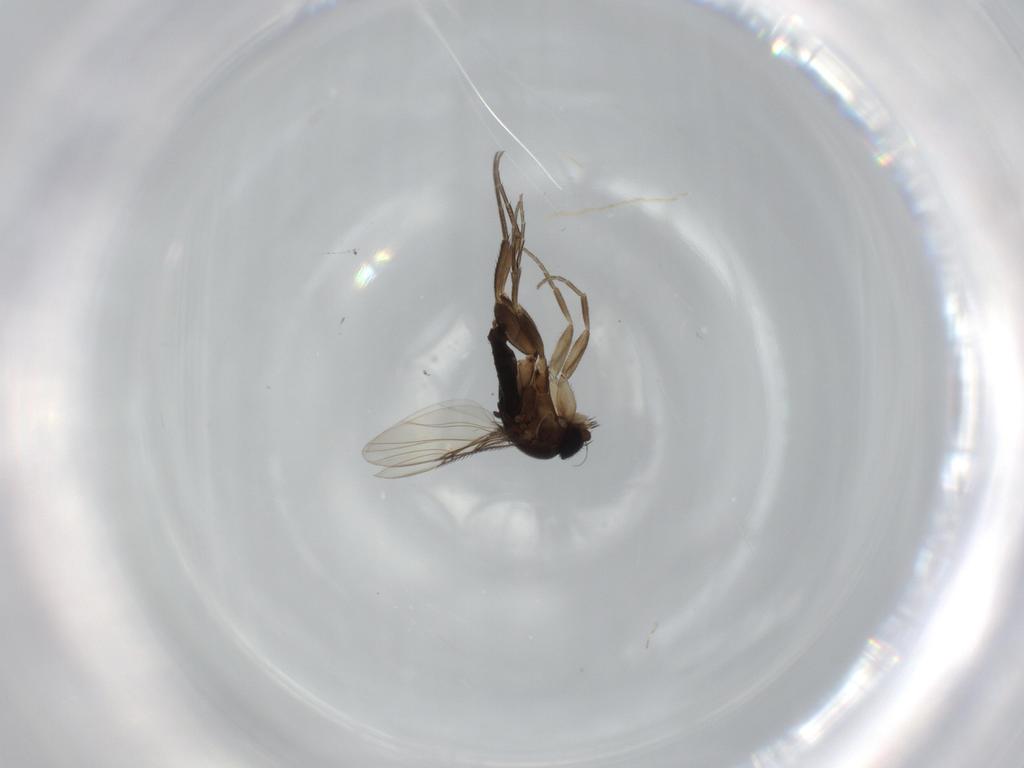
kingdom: Animalia
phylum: Arthropoda
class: Insecta
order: Diptera
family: Phoridae
